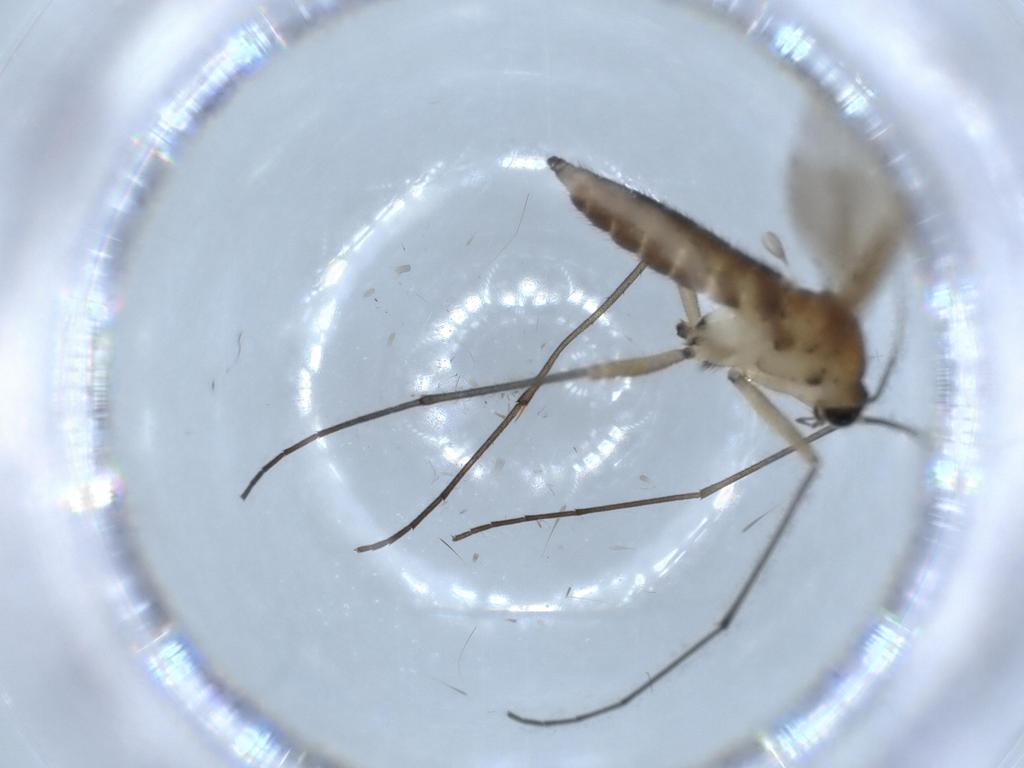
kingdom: Animalia
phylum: Arthropoda
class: Insecta
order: Diptera
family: Sciaridae
